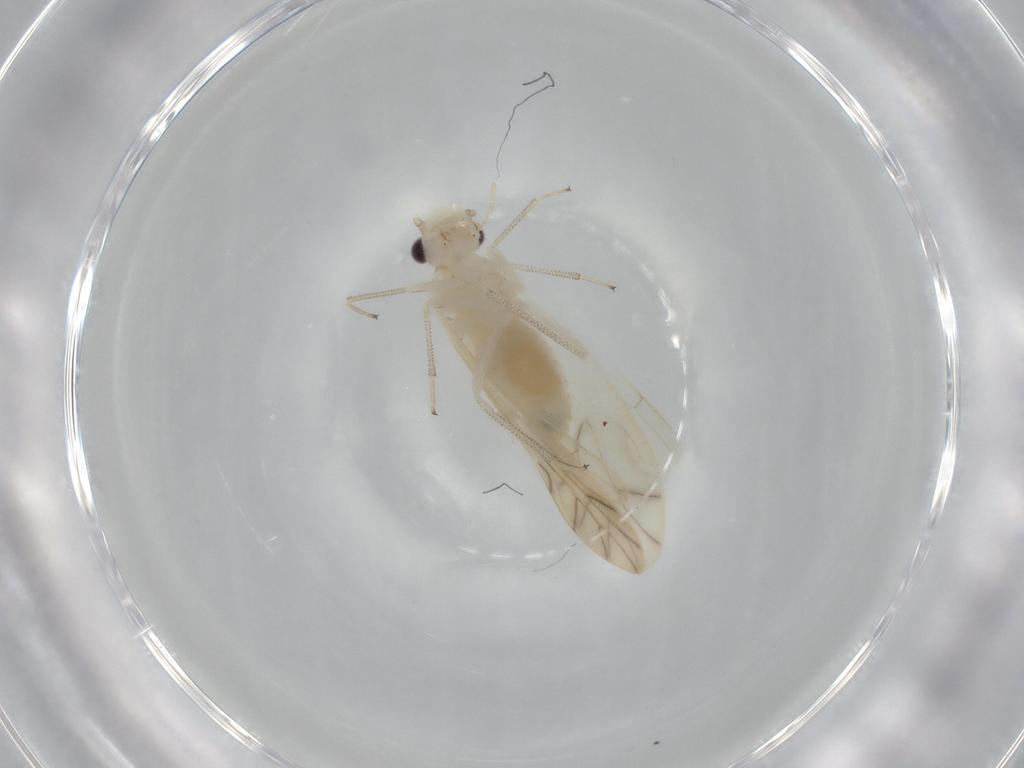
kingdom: Animalia
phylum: Arthropoda
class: Insecta
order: Psocodea
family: Caeciliusidae
